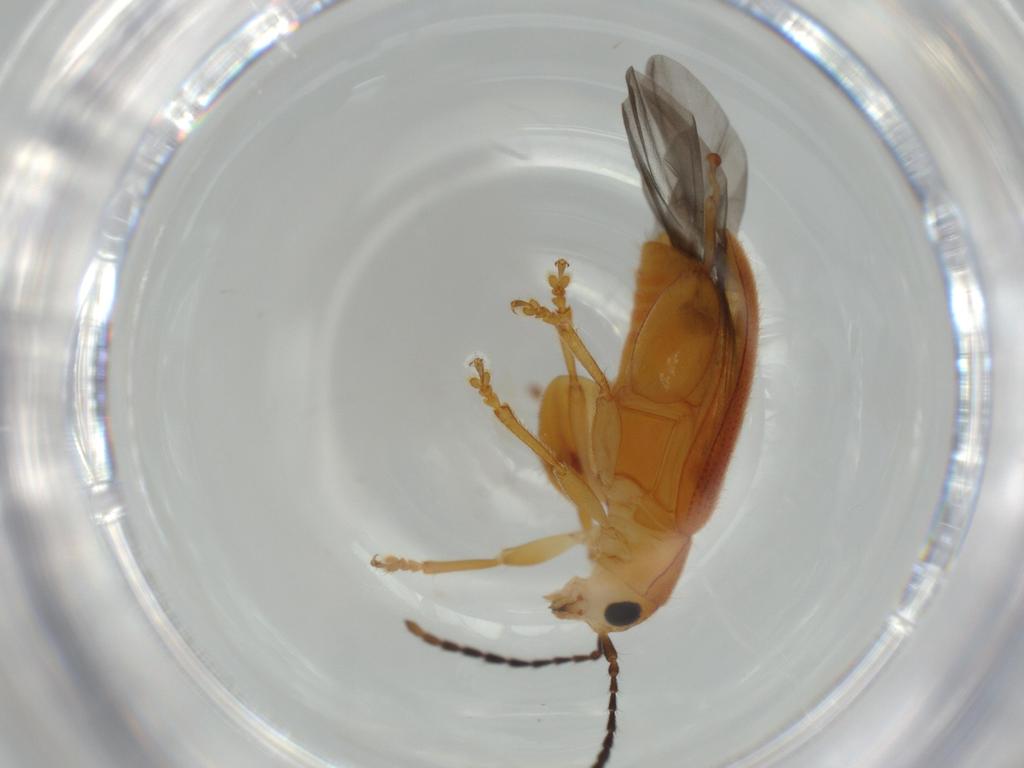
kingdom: Animalia
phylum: Arthropoda
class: Insecta
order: Coleoptera
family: Chrysomelidae
